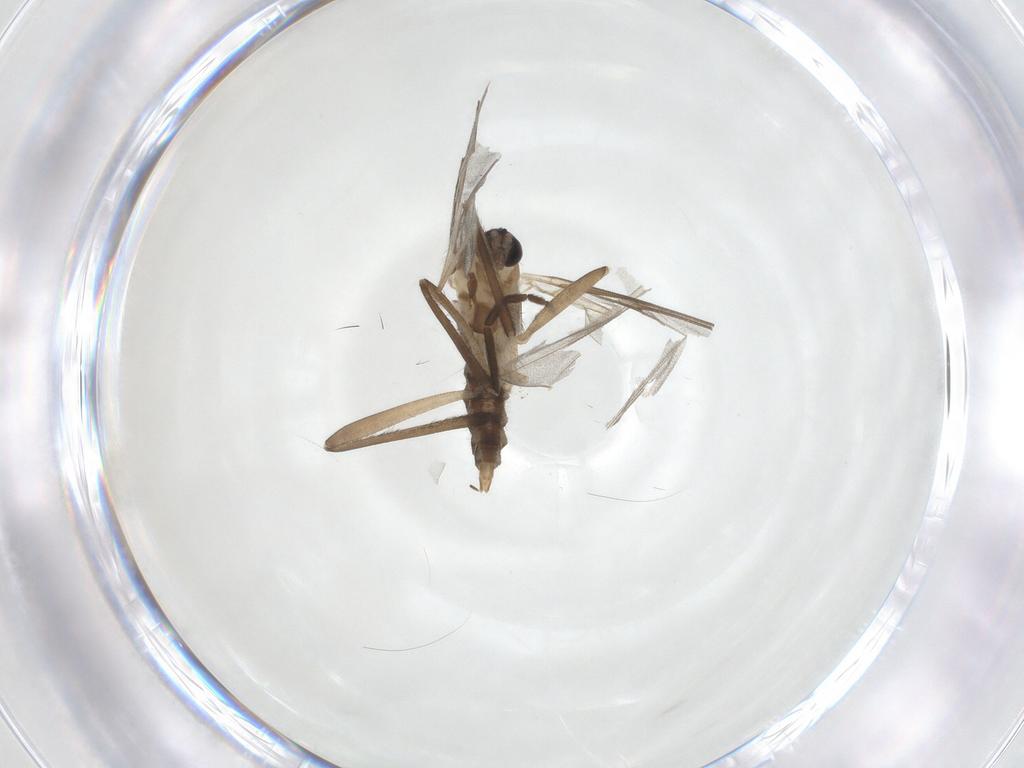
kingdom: Animalia
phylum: Arthropoda
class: Insecta
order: Diptera
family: Cecidomyiidae
